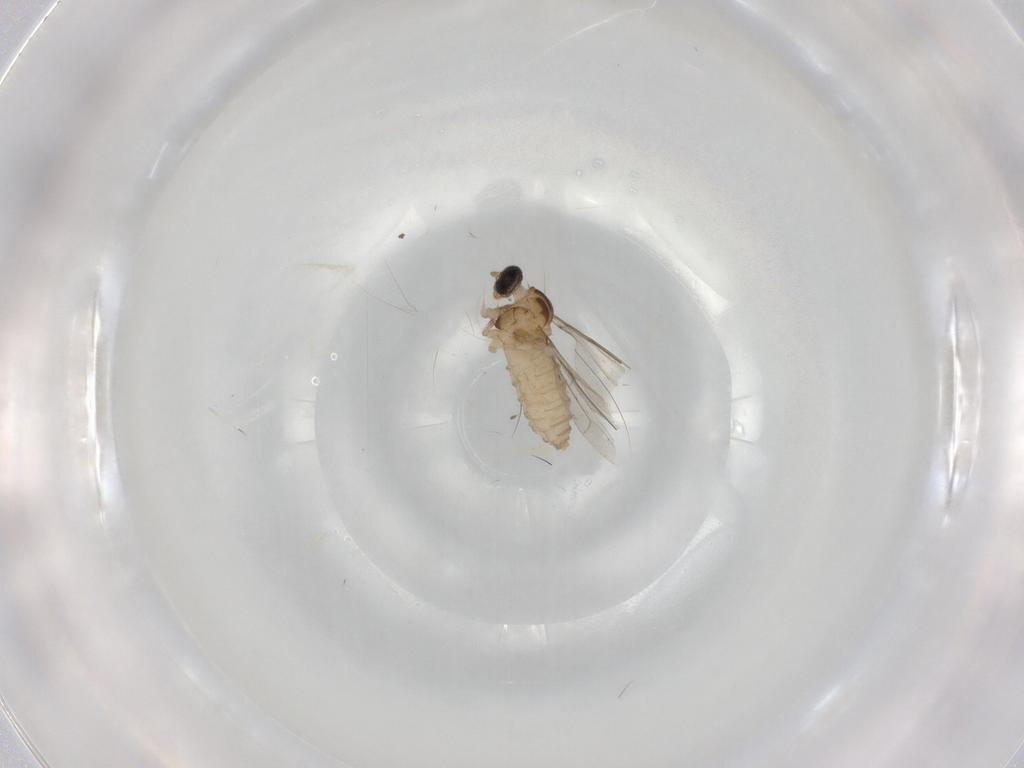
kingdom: Animalia
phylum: Arthropoda
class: Insecta
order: Diptera
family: Cecidomyiidae
